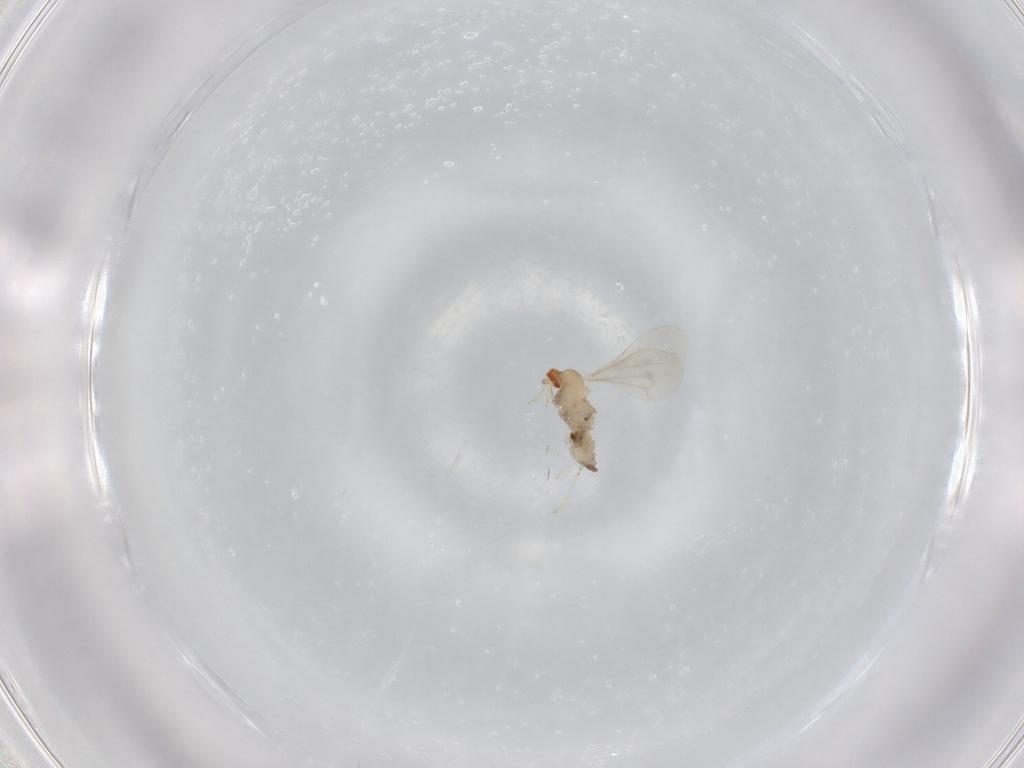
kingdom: Animalia
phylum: Arthropoda
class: Insecta
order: Diptera
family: Cecidomyiidae
